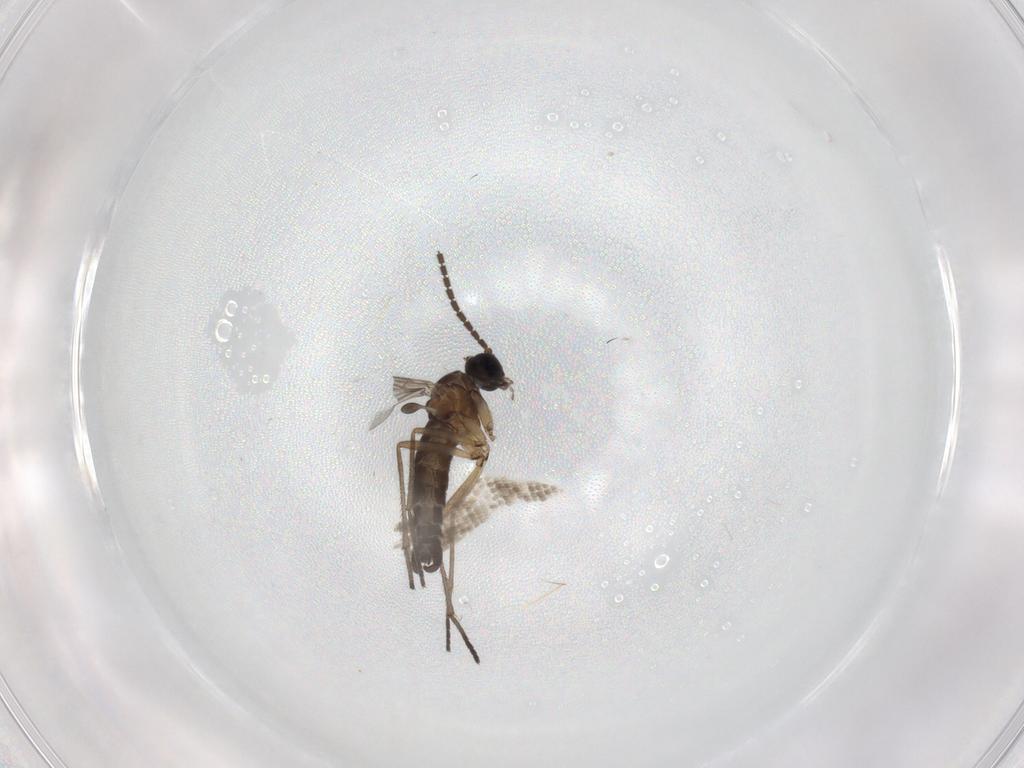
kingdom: Animalia
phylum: Arthropoda
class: Insecta
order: Diptera
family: Sciaridae
